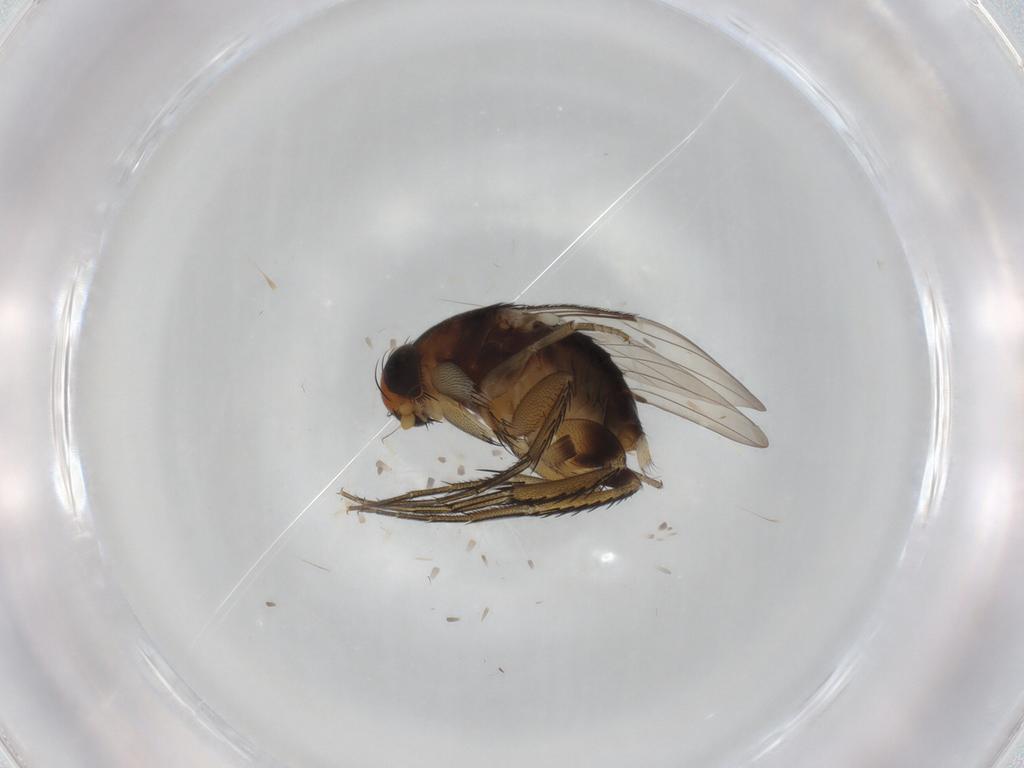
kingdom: Animalia
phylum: Arthropoda
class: Insecta
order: Diptera
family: Phoridae
